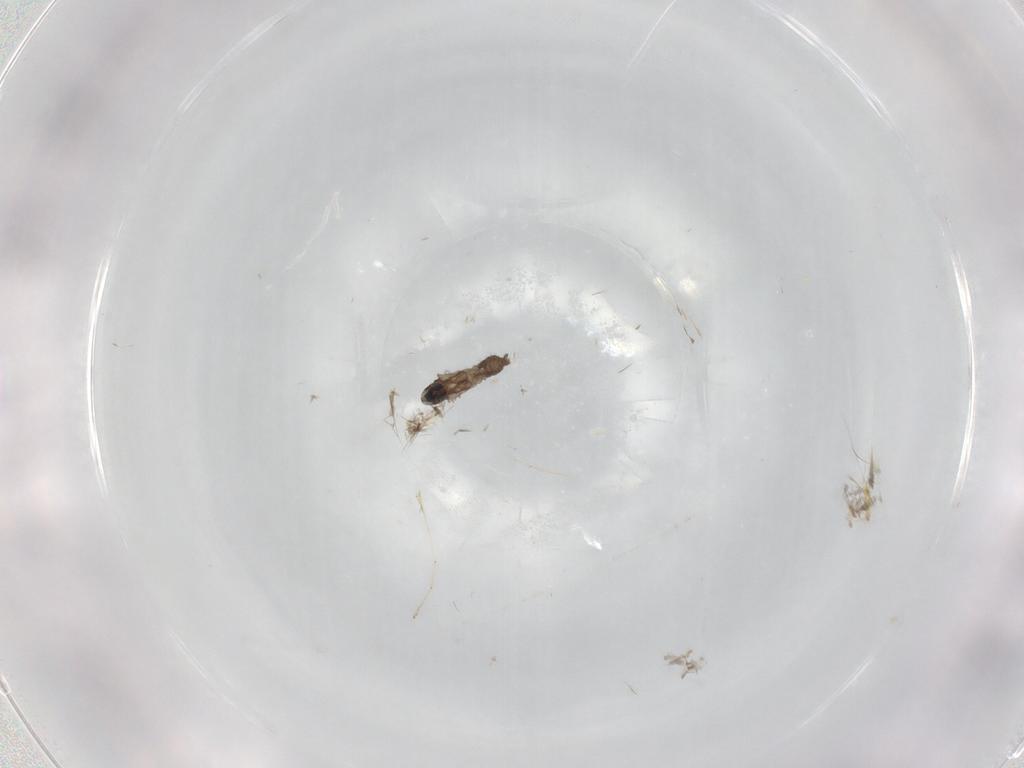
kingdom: Animalia
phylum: Arthropoda
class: Insecta
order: Diptera
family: Cecidomyiidae
